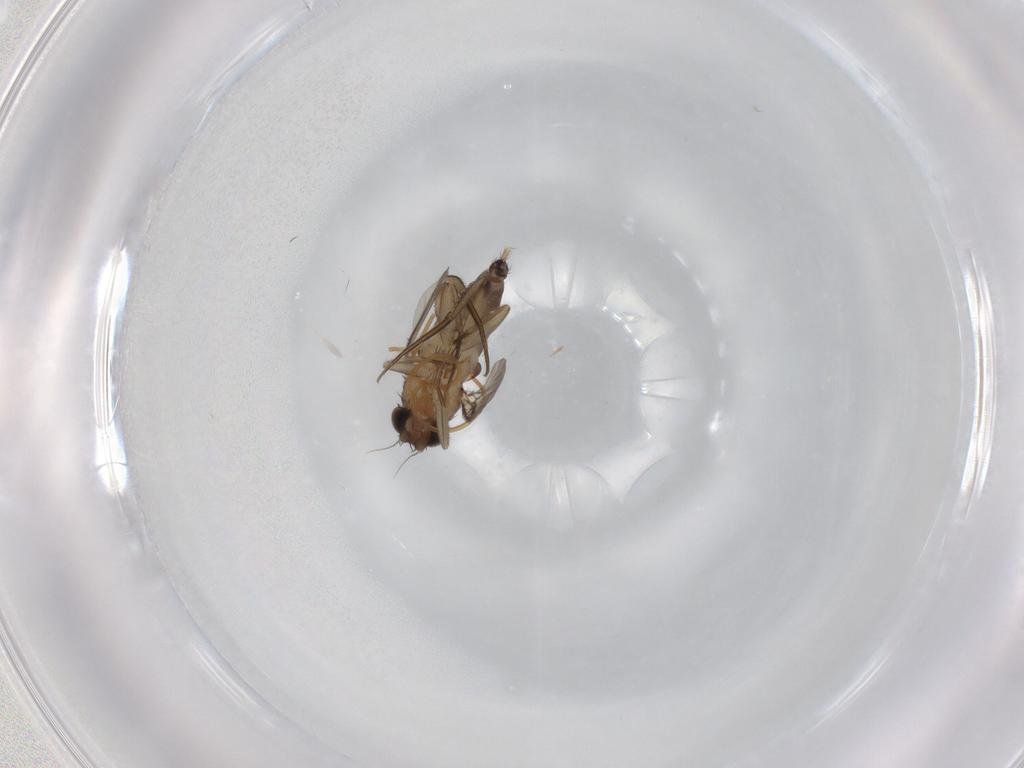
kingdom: Animalia
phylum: Arthropoda
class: Insecta
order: Diptera
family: Phoridae
